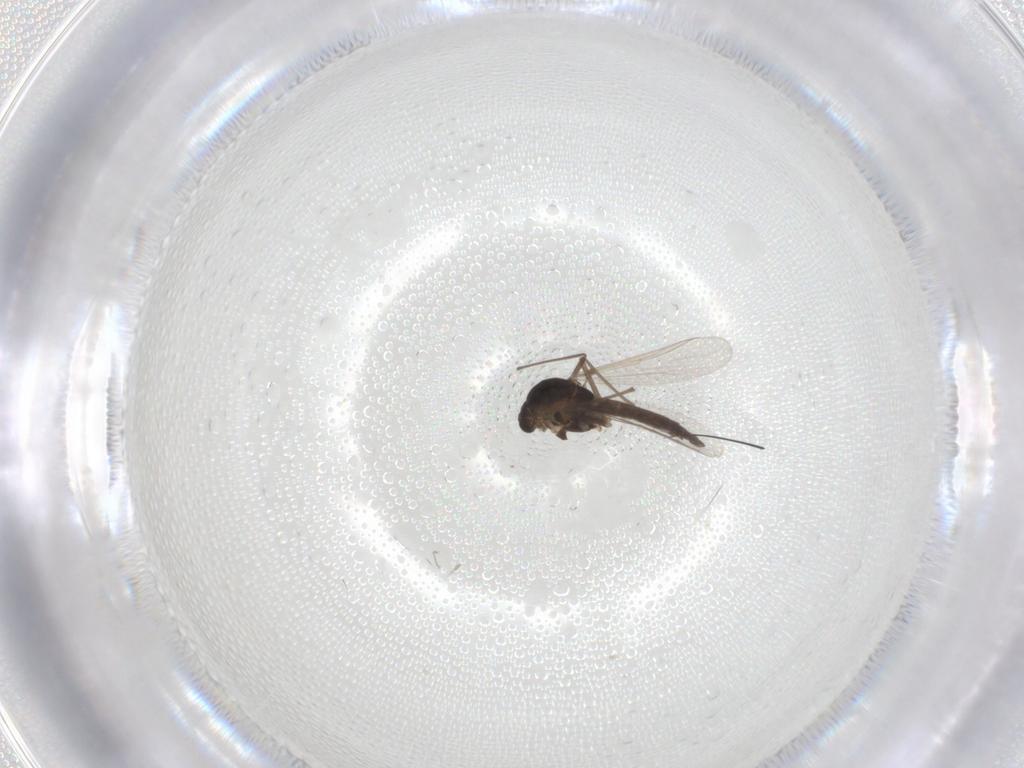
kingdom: Animalia
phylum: Arthropoda
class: Insecta
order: Diptera
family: Chironomidae
